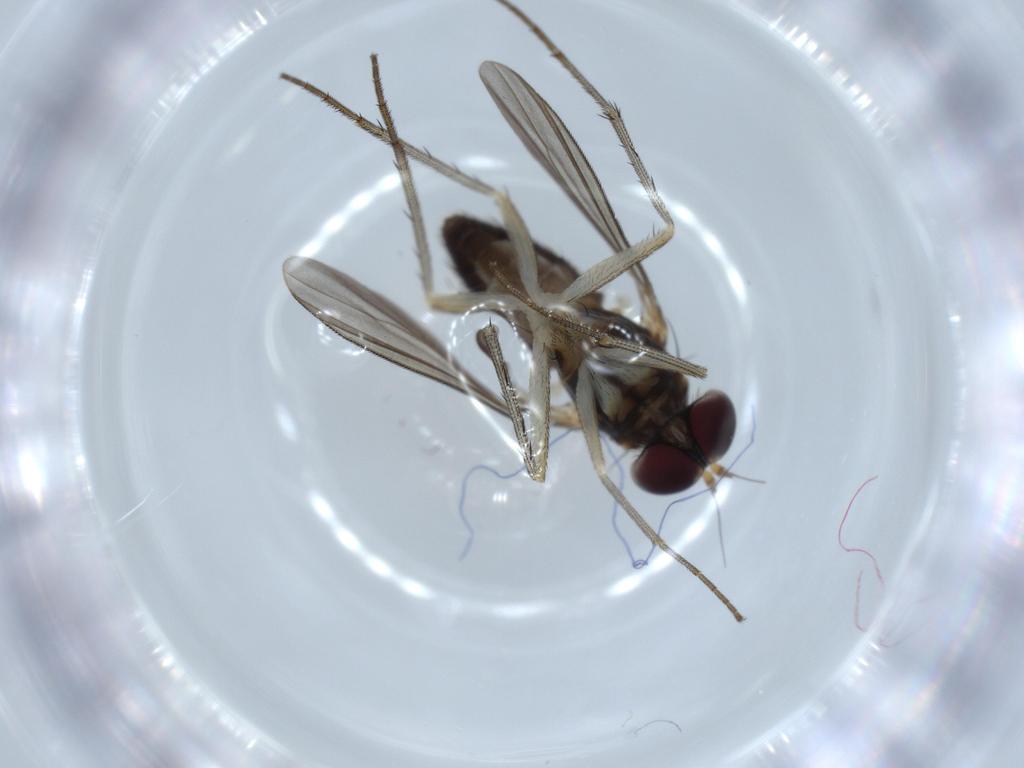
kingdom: Animalia
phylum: Arthropoda
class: Insecta
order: Diptera
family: Dolichopodidae
